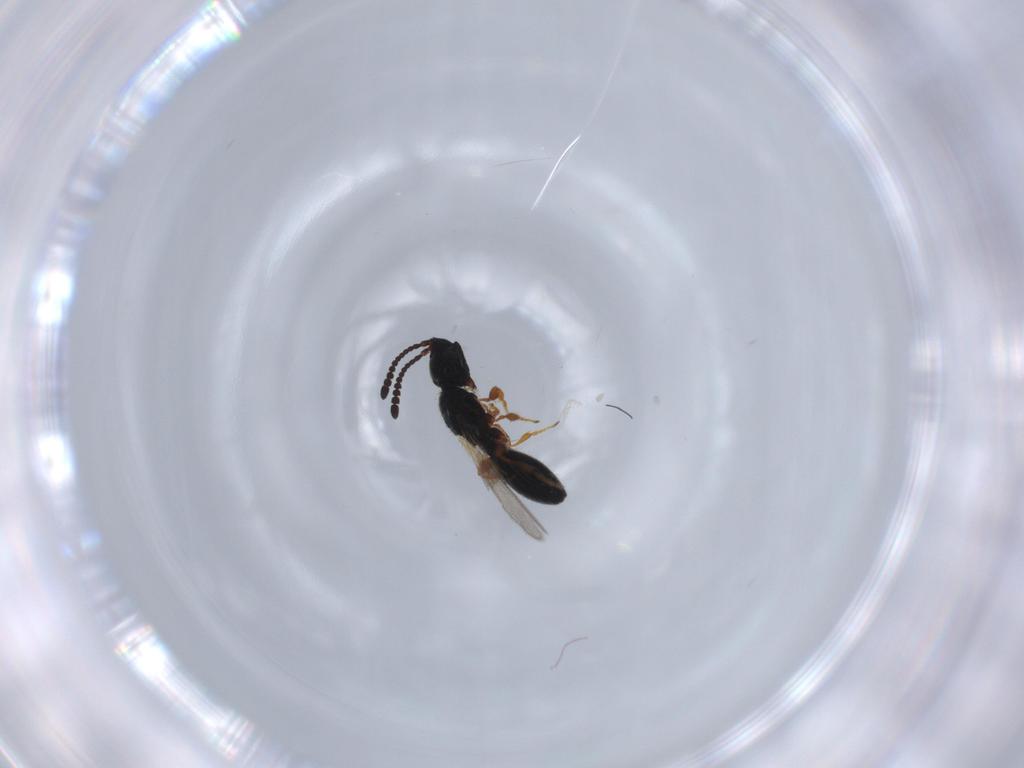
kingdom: Animalia
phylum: Arthropoda
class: Insecta
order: Hymenoptera
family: Diapriidae
